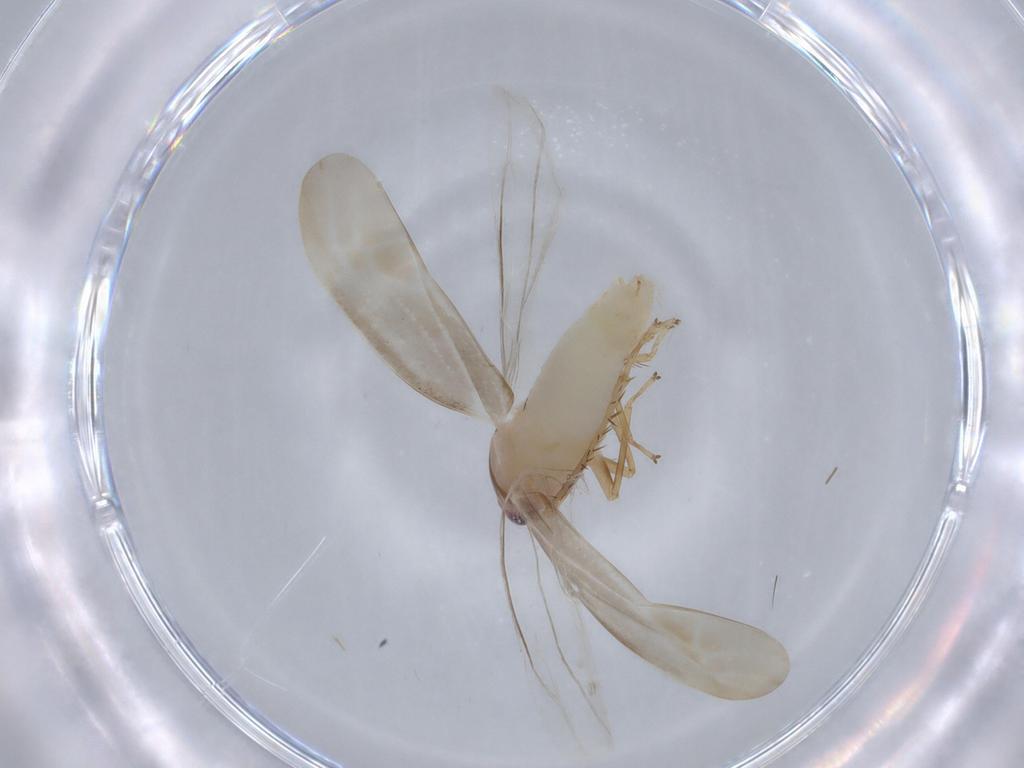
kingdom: Animalia
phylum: Arthropoda
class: Insecta
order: Hemiptera
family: Cicadellidae
